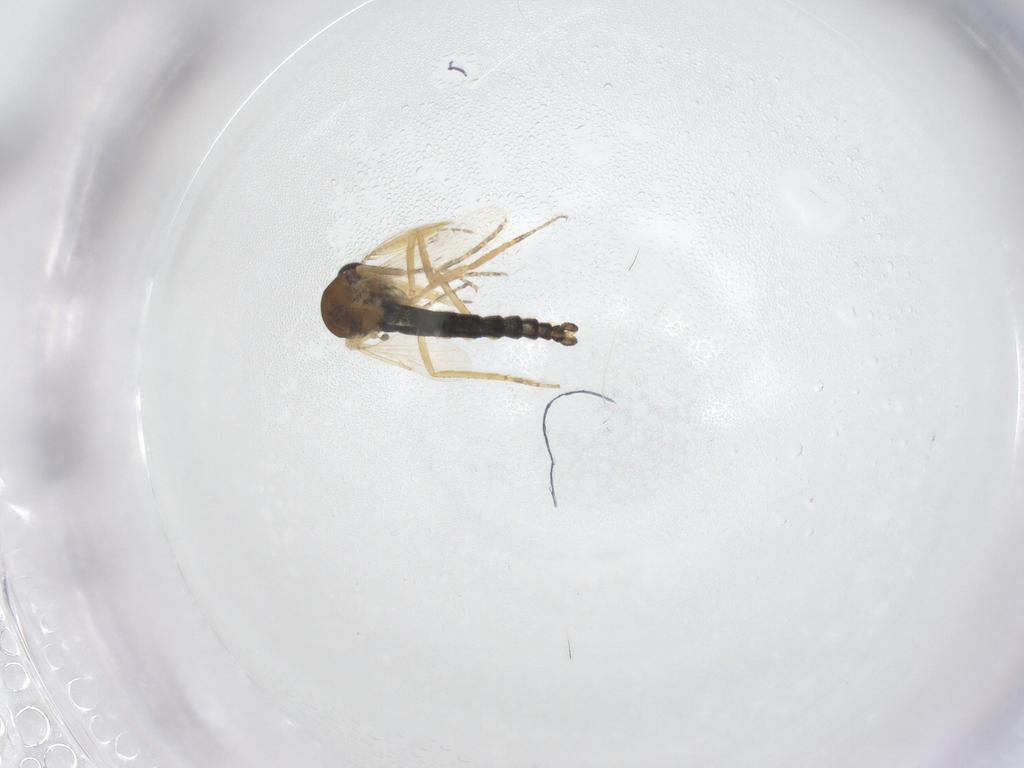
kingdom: Animalia
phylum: Arthropoda
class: Insecta
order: Diptera
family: Ceratopogonidae
